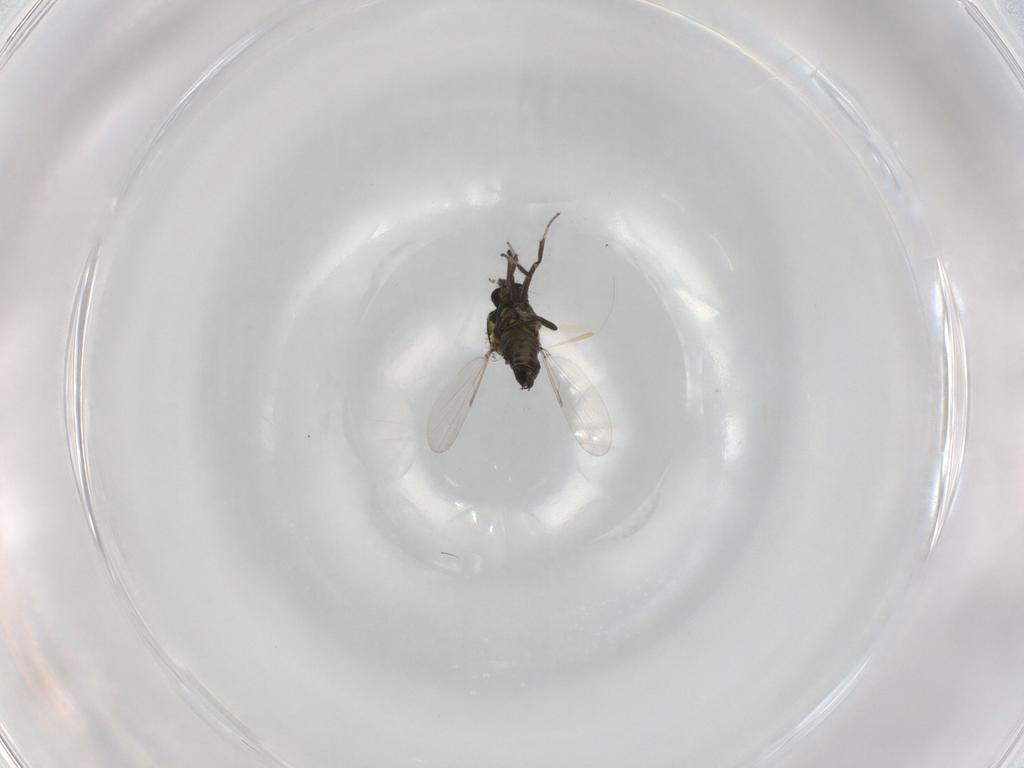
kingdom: Animalia
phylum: Arthropoda
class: Insecta
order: Diptera
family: Ceratopogonidae
